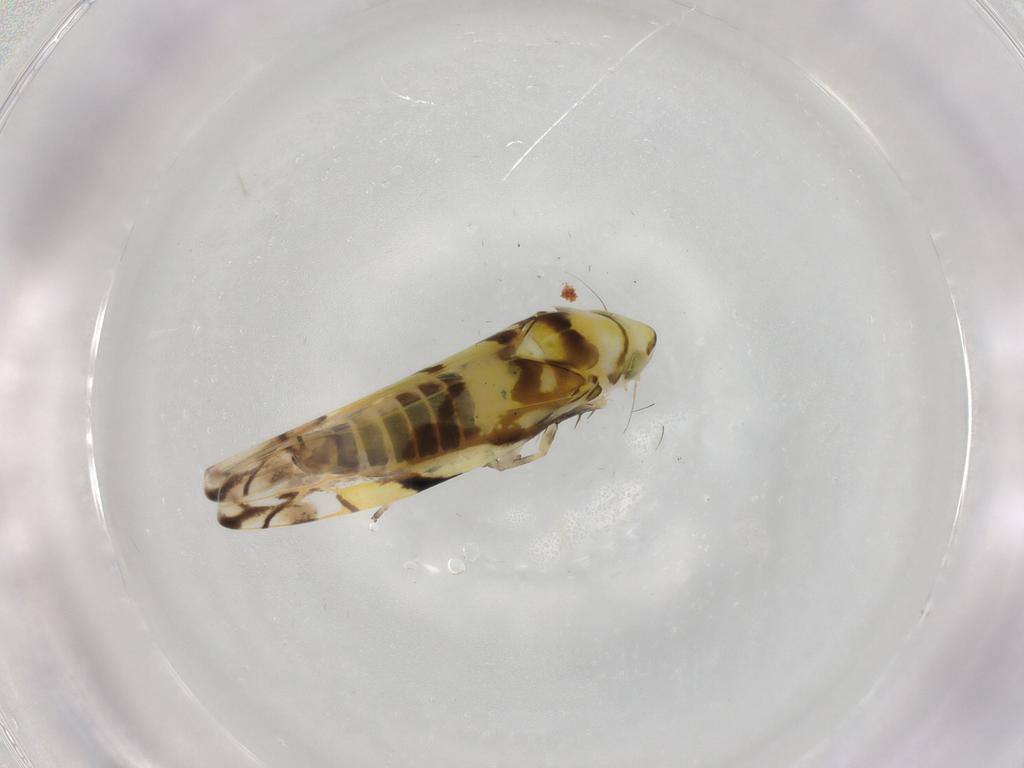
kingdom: Animalia
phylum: Arthropoda
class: Insecta
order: Hemiptera
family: Cicadellidae
